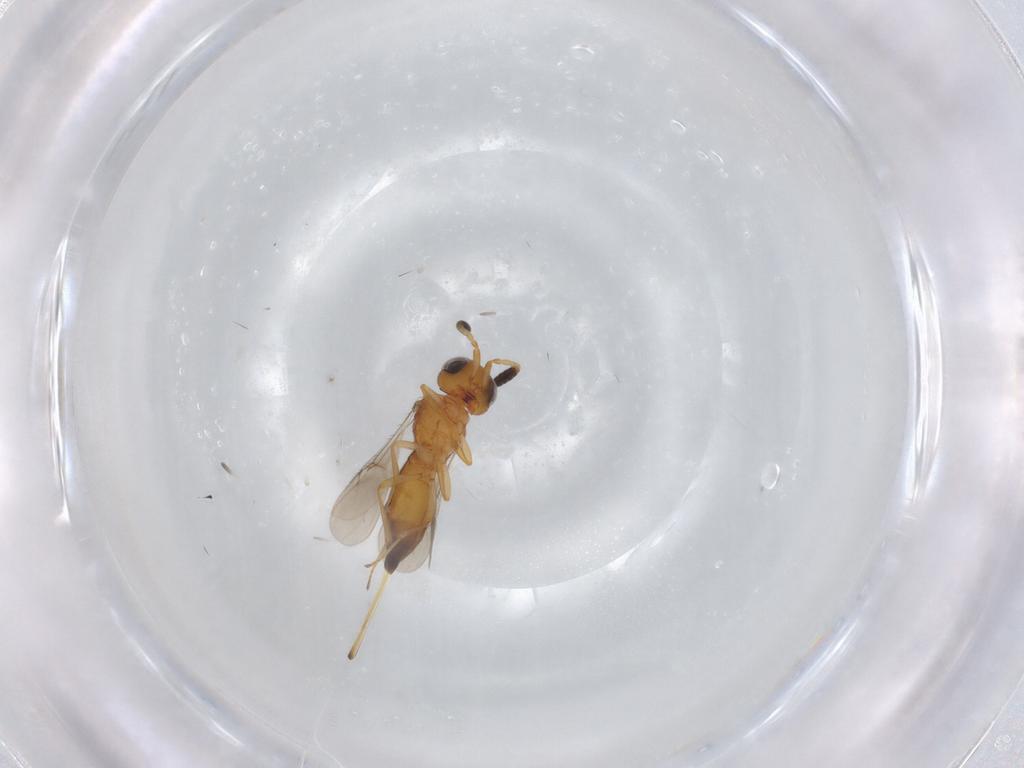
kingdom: Animalia
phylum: Arthropoda
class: Insecta
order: Hymenoptera
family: Scelionidae
